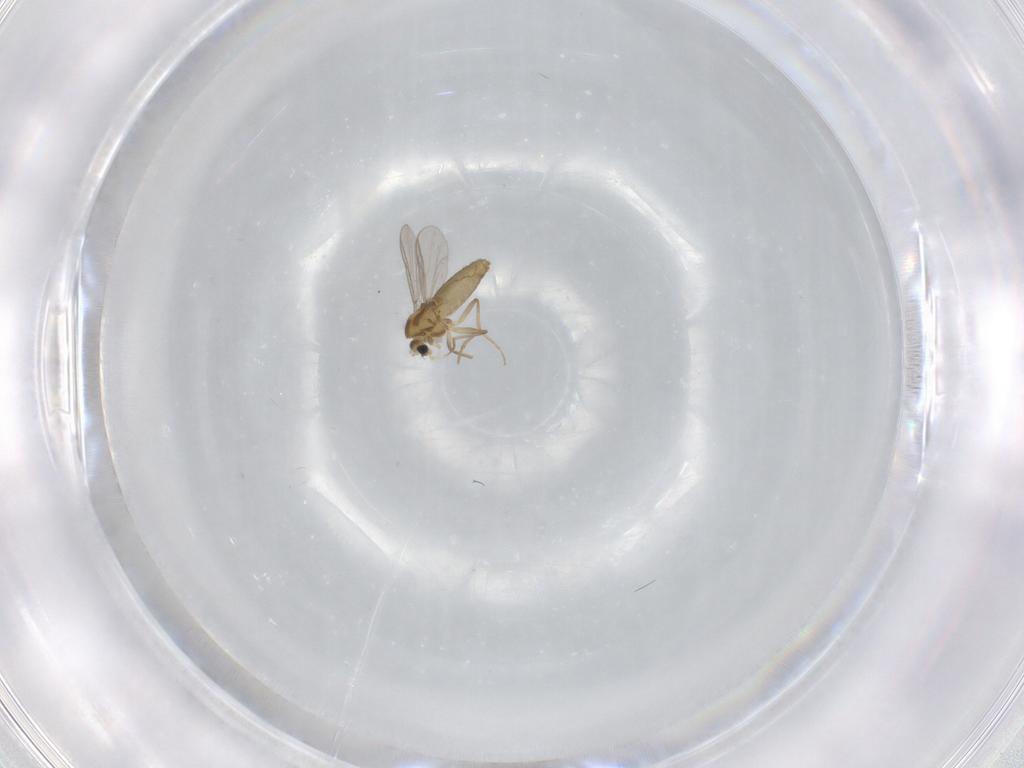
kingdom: Animalia
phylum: Arthropoda
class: Insecta
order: Diptera
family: Chironomidae
